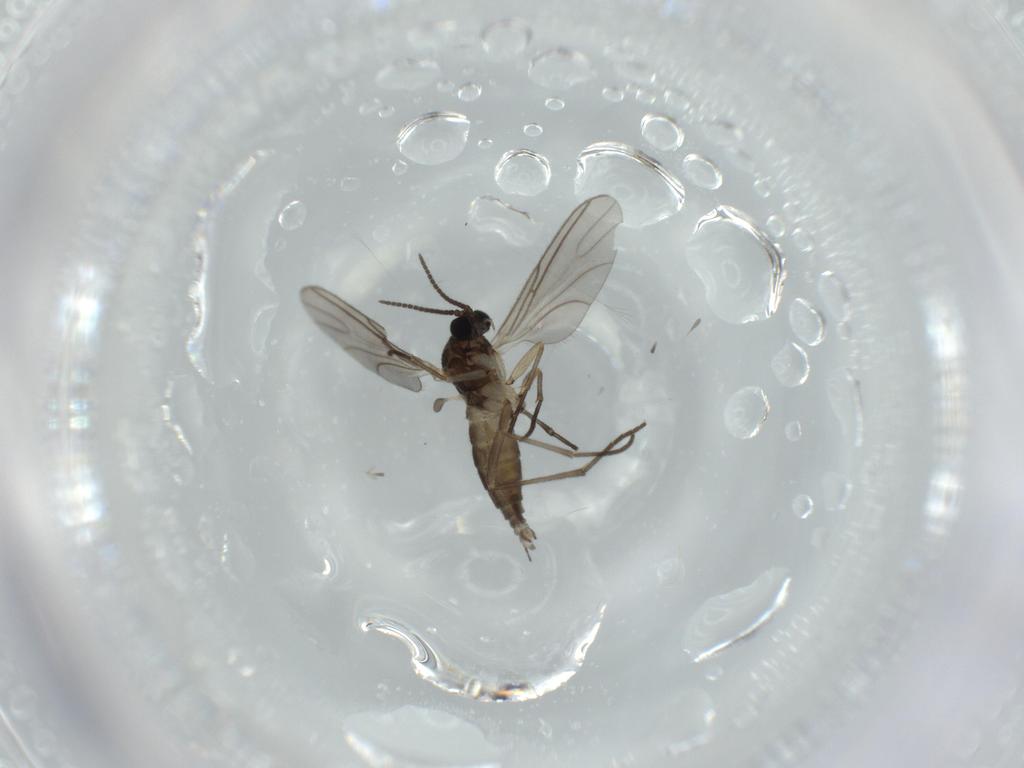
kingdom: Animalia
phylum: Arthropoda
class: Insecta
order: Diptera
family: Sciaridae
